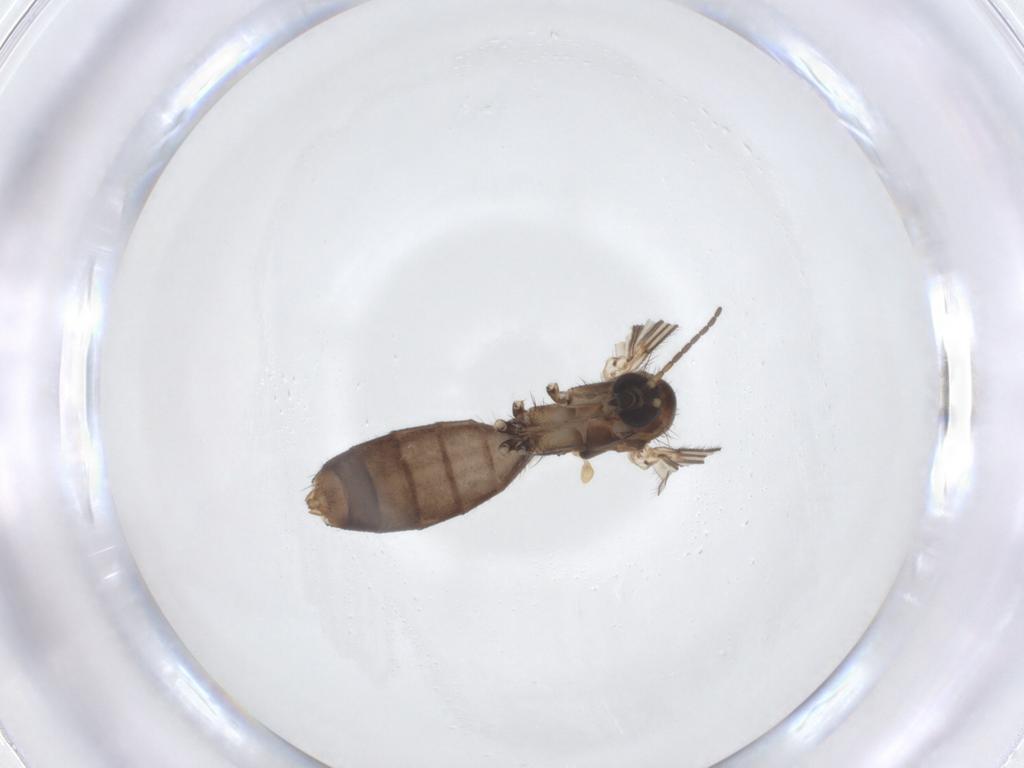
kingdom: Animalia
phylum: Arthropoda
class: Insecta
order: Diptera
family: Mycetophilidae
